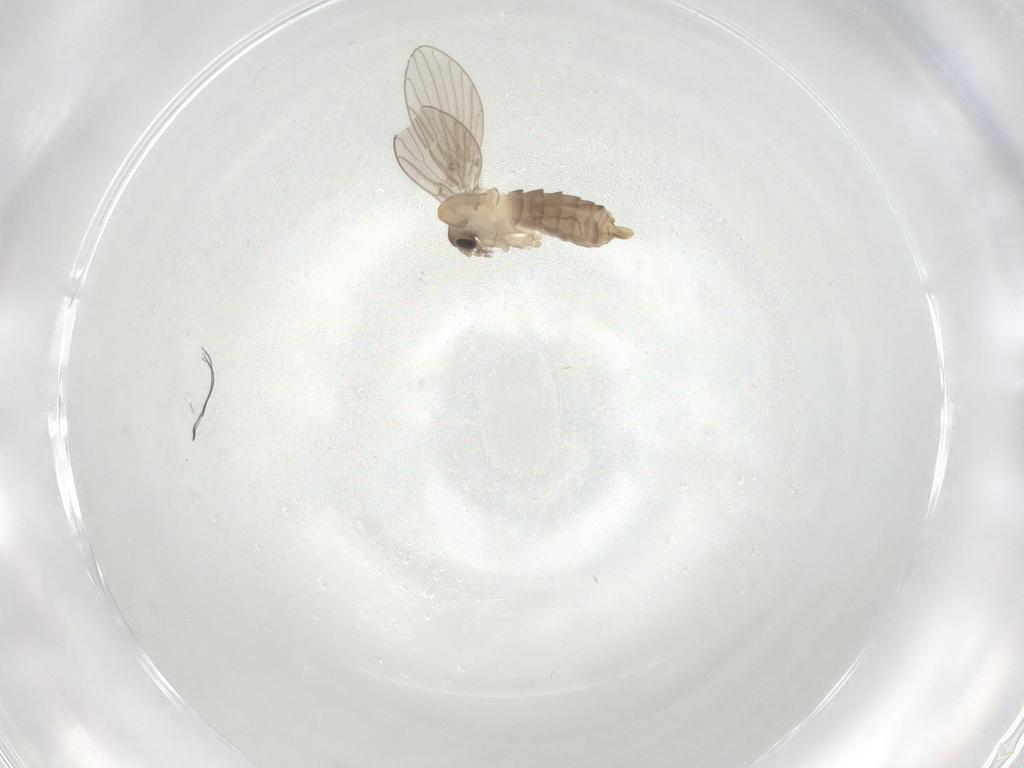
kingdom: Animalia
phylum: Arthropoda
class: Insecta
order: Diptera
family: Psychodidae
